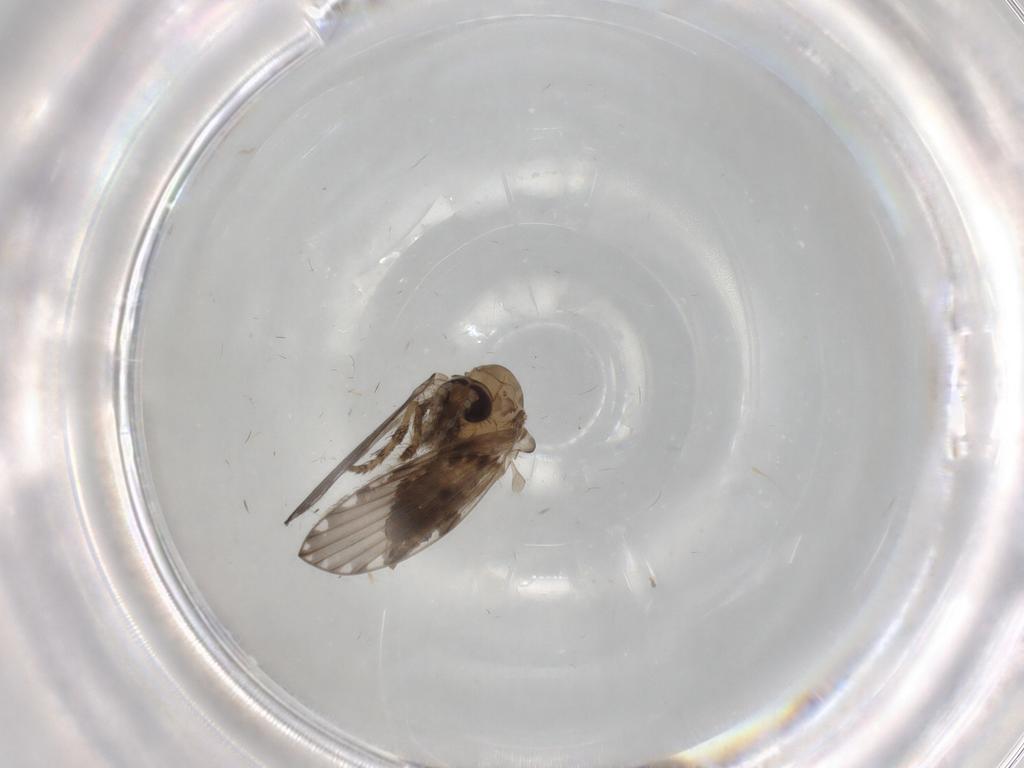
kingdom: Animalia
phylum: Arthropoda
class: Insecta
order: Diptera
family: Psychodidae
